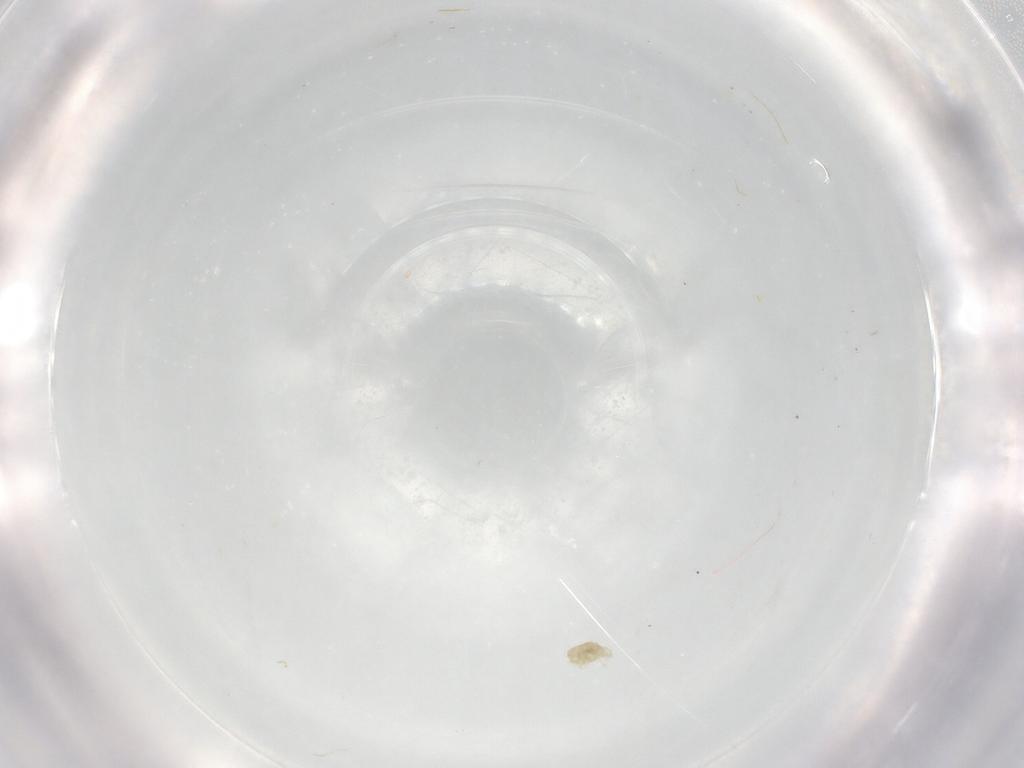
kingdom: Animalia
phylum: Arthropoda
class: Arachnida
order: Trombidiformes
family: Eupodidae
